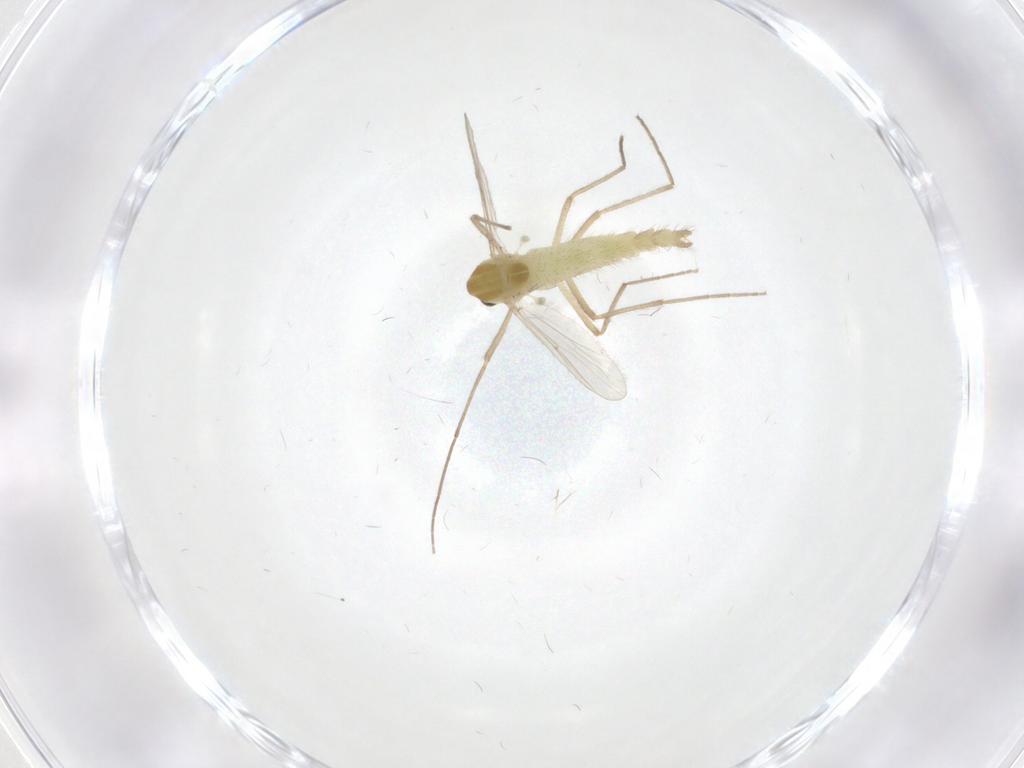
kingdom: Animalia
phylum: Arthropoda
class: Insecta
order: Diptera
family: Chironomidae
